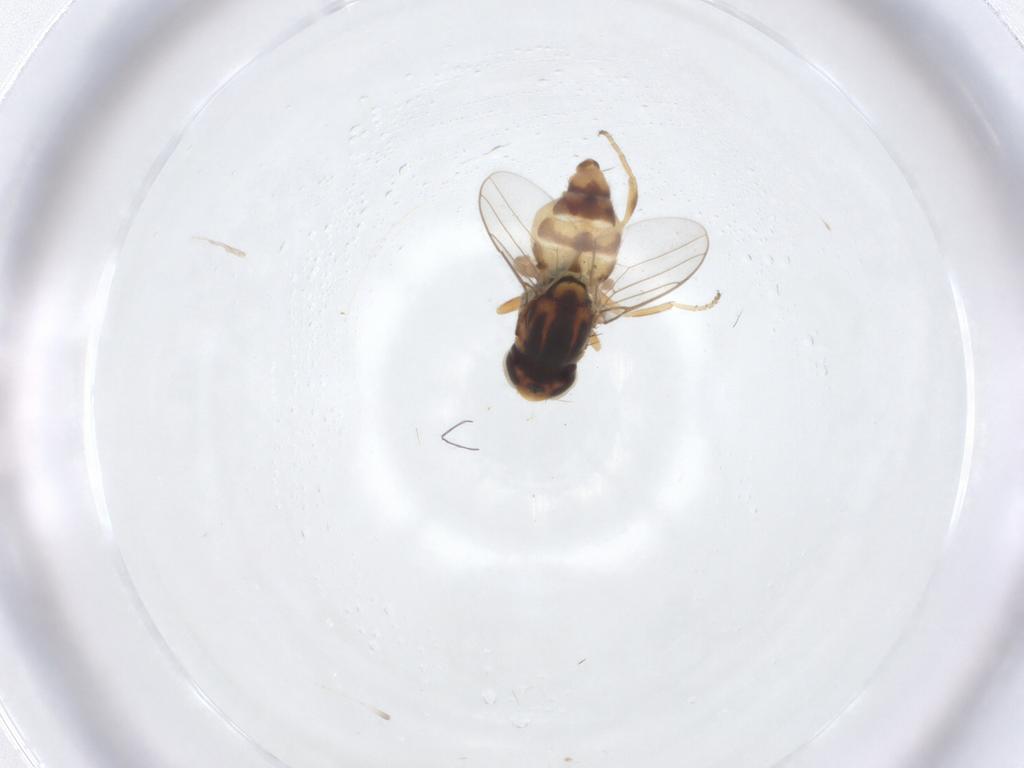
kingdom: Animalia
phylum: Arthropoda
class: Insecta
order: Diptera
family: Chloropidae
